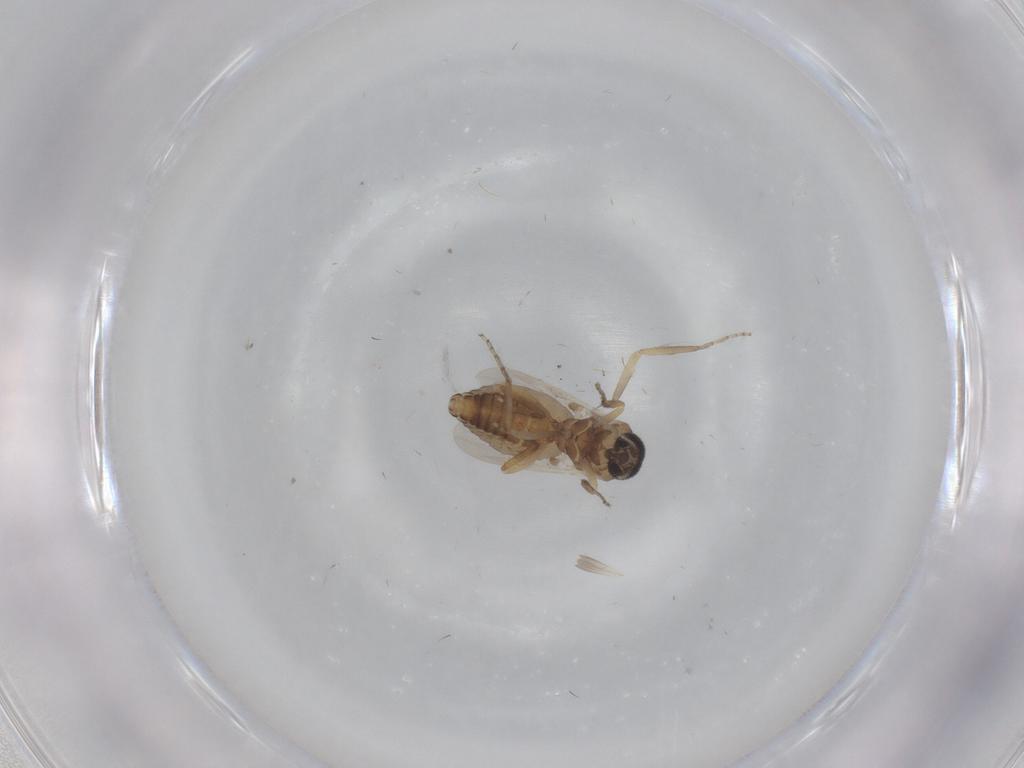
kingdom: Animalia
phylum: Arthropoda
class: Insecta
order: Diptera
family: Ceratopogonidae
